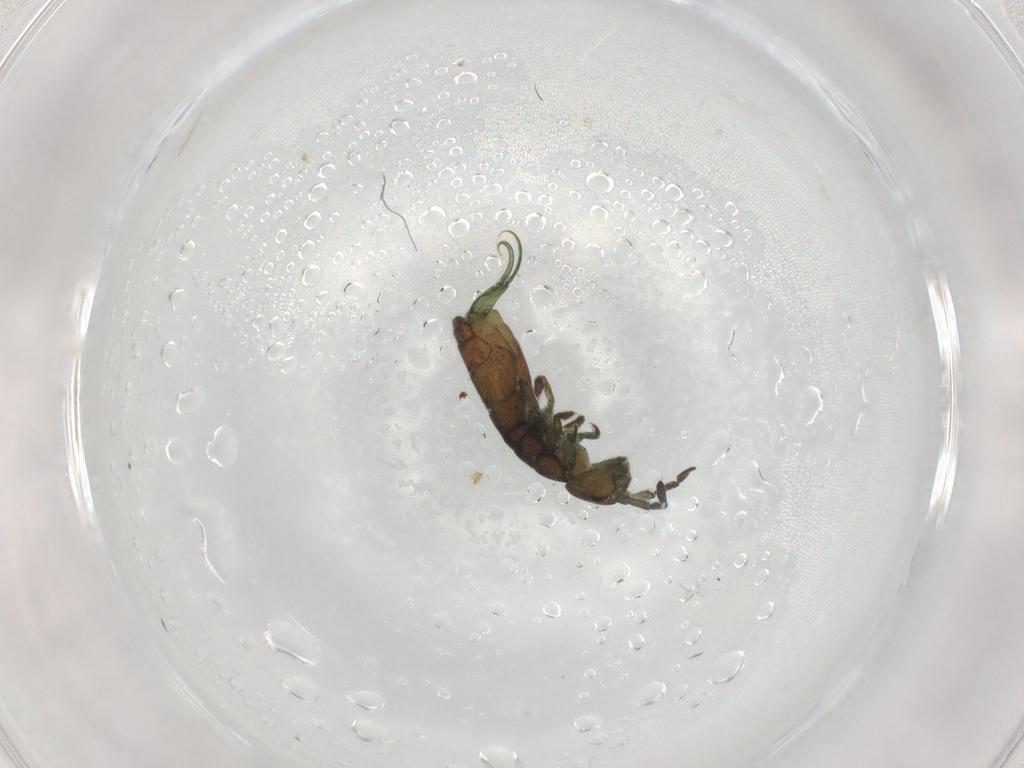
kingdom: Animalia
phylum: Arthropoda
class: Collembola
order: Entomobryomorpha
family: Isotomidae
